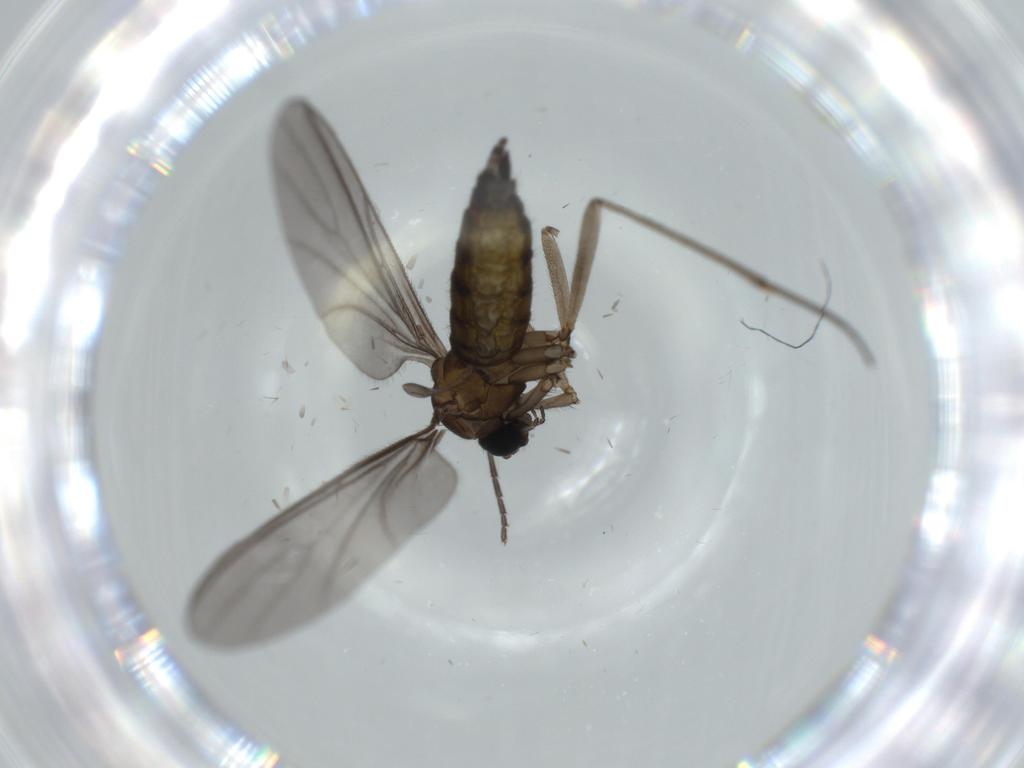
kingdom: Animalia
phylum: Arthropoda
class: Insecta
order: Diptera
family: Sciaridae
